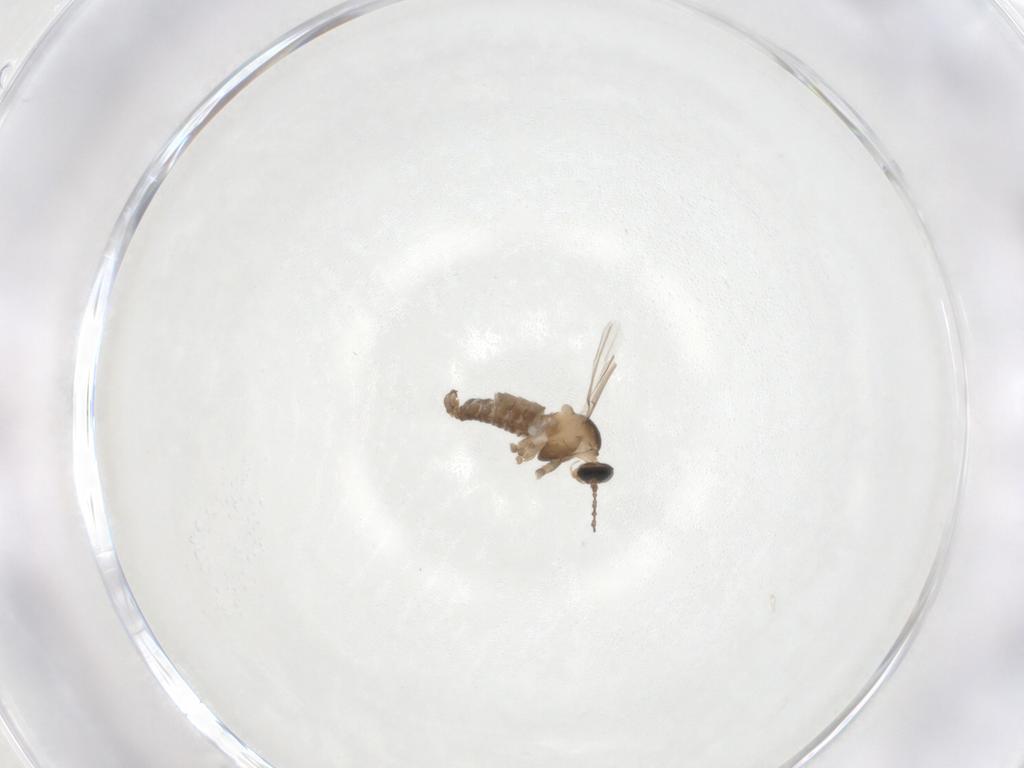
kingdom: Animalia
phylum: Arthropoda
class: Insecta
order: Diptera
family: Cecidomyiidae
